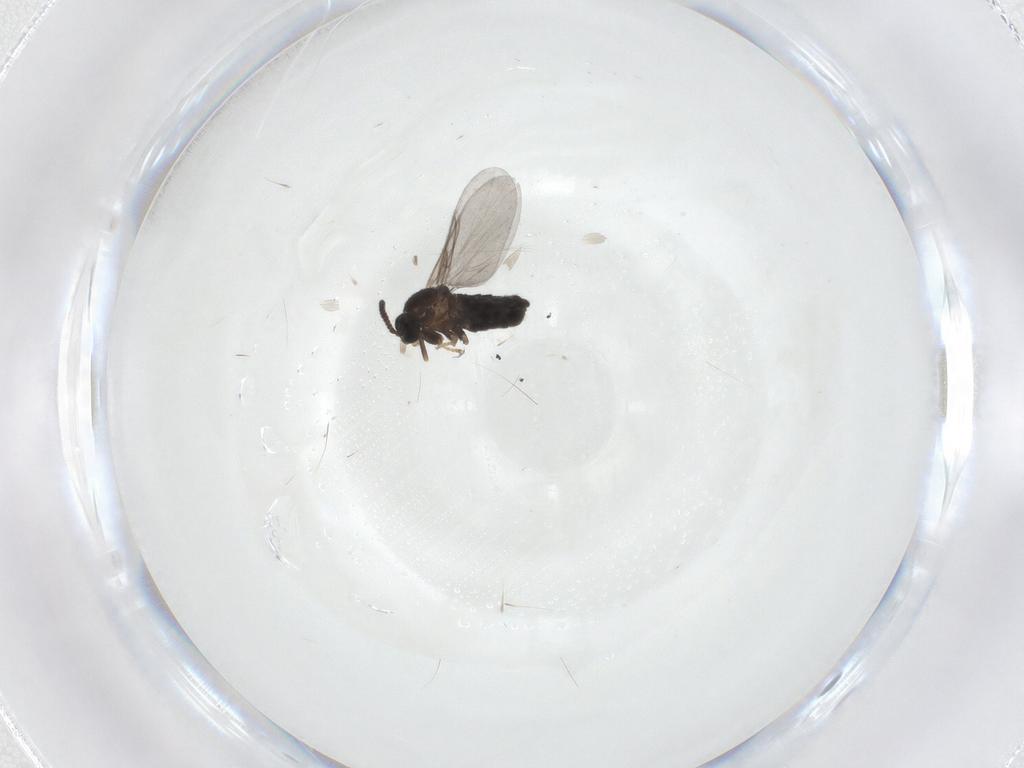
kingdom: Animalia
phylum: Arthropoda
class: Insecta
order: Diptera
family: Scatopsidae
